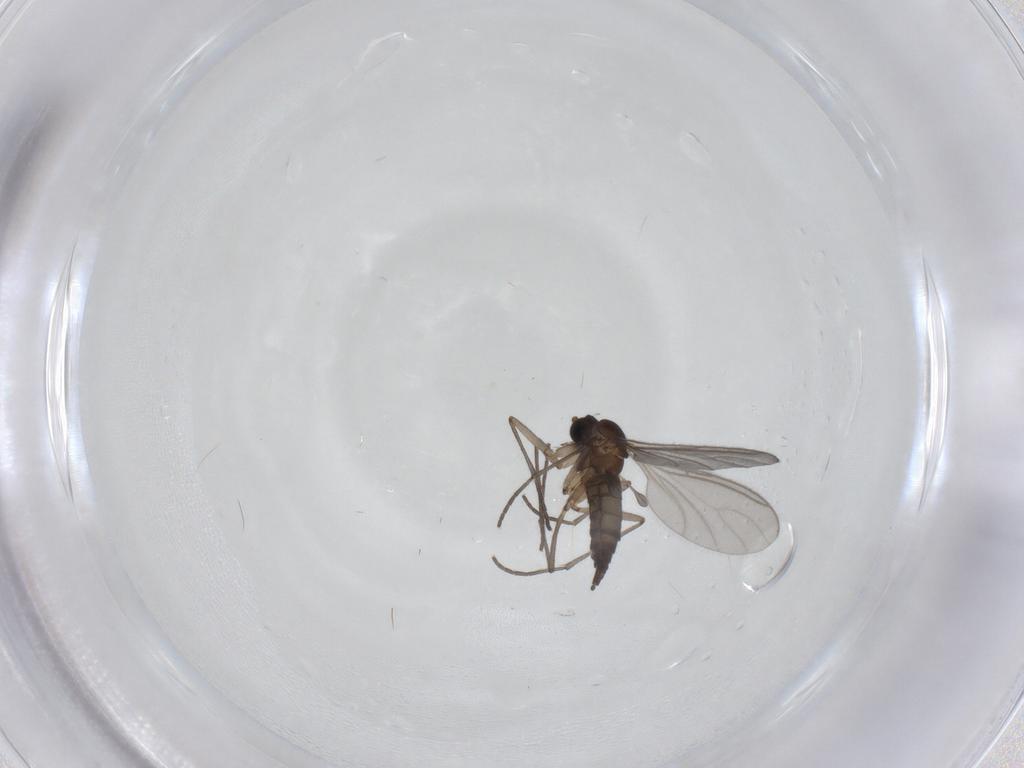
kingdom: Animalia
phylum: Arthropoda
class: Insecta
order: Diptera
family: Sciaridae
